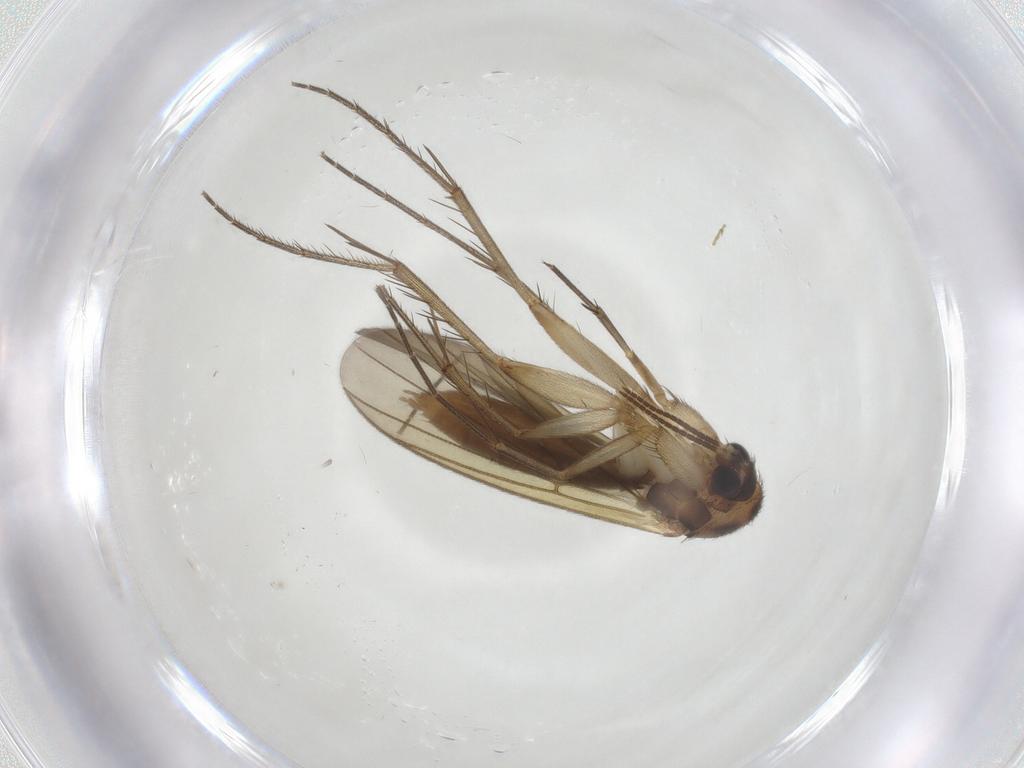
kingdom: Animalia
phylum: Arthropoda
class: Insecta
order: Diptera
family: Mycetophilidae
